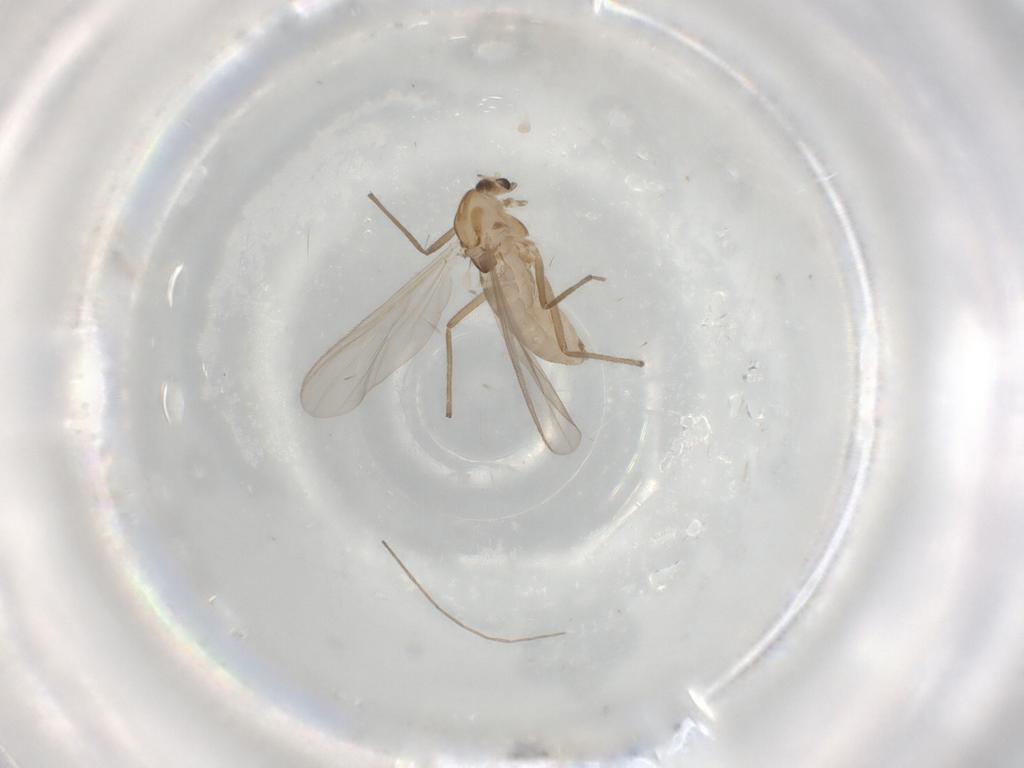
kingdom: Animalia
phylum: Arthropoda
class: Insecta
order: Diptera
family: Chironomidae
